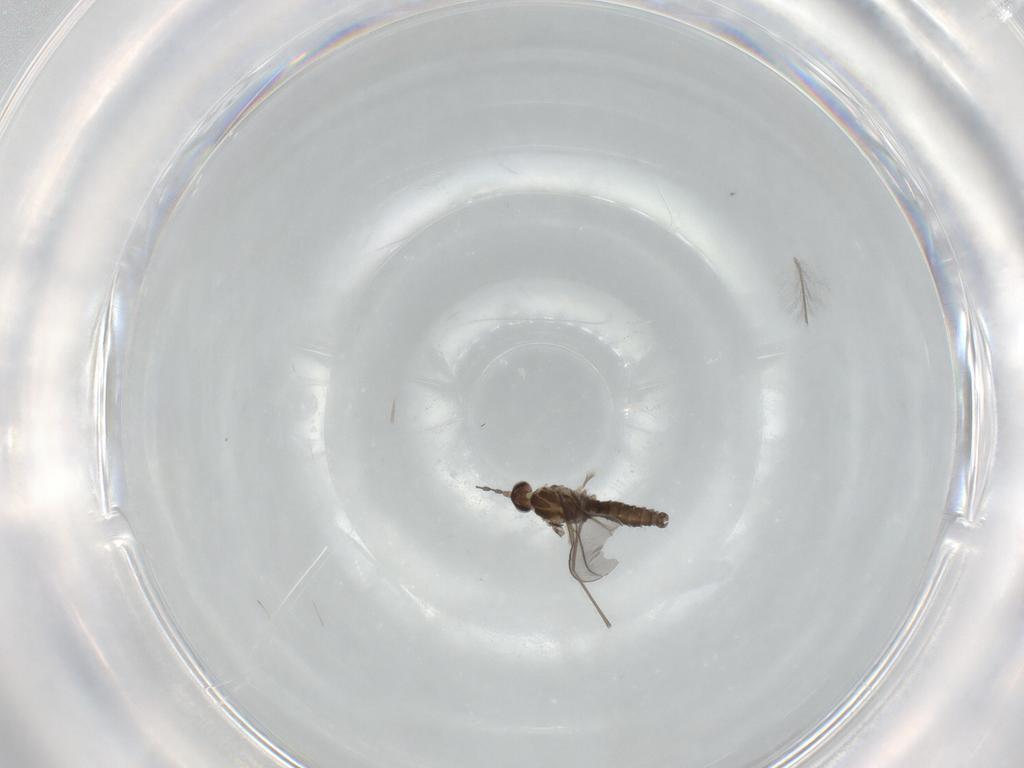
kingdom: Animalia
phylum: Arthropoda
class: Insecta
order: Diptera
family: Cecidomyiidae
